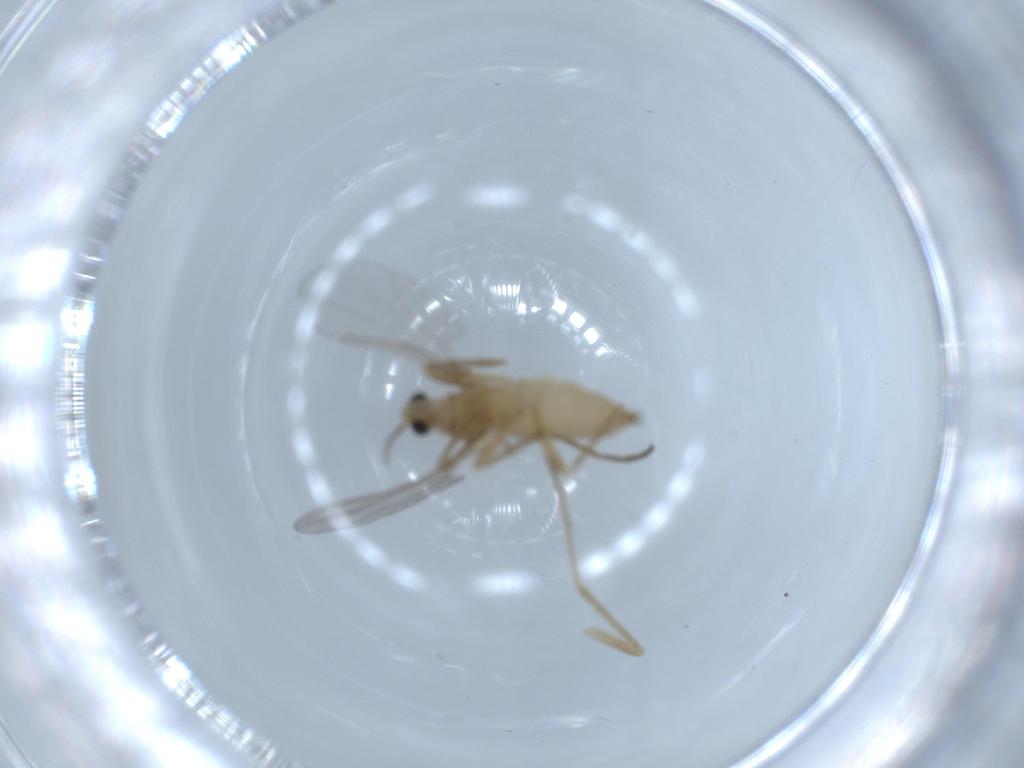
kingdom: Animalia
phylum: Arthropoda
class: Insecta
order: Diptera
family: Cecidomyiidae
